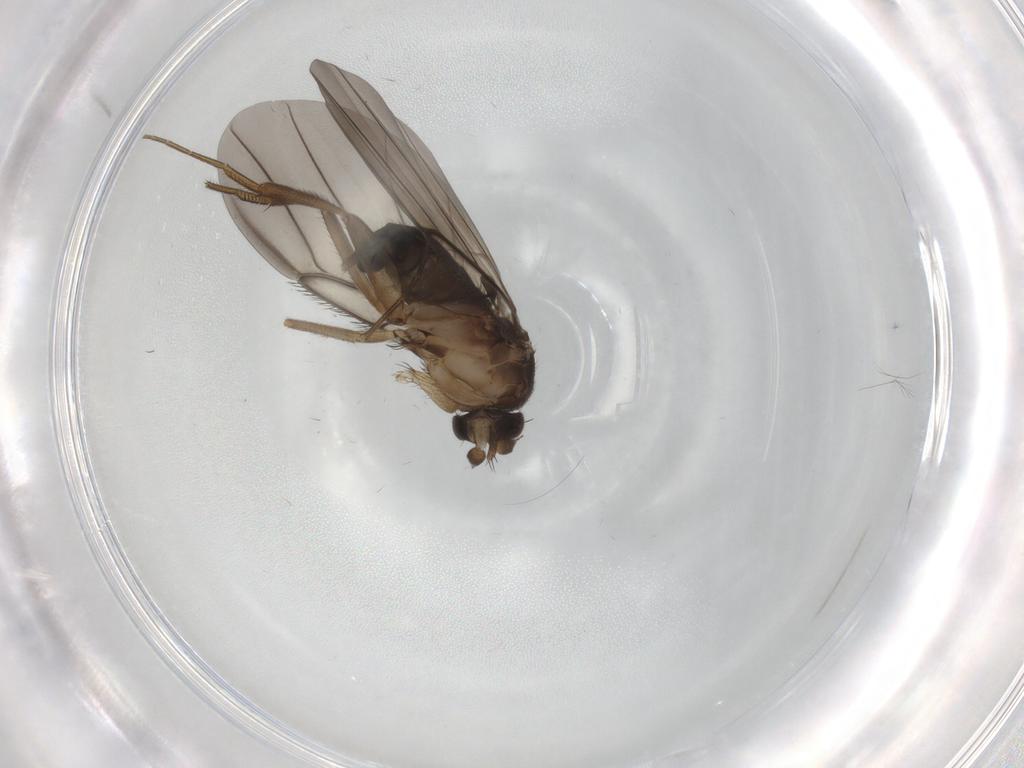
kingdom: Animalia
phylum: Arthropoda
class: Insecta
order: Diptera
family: Phoridae
